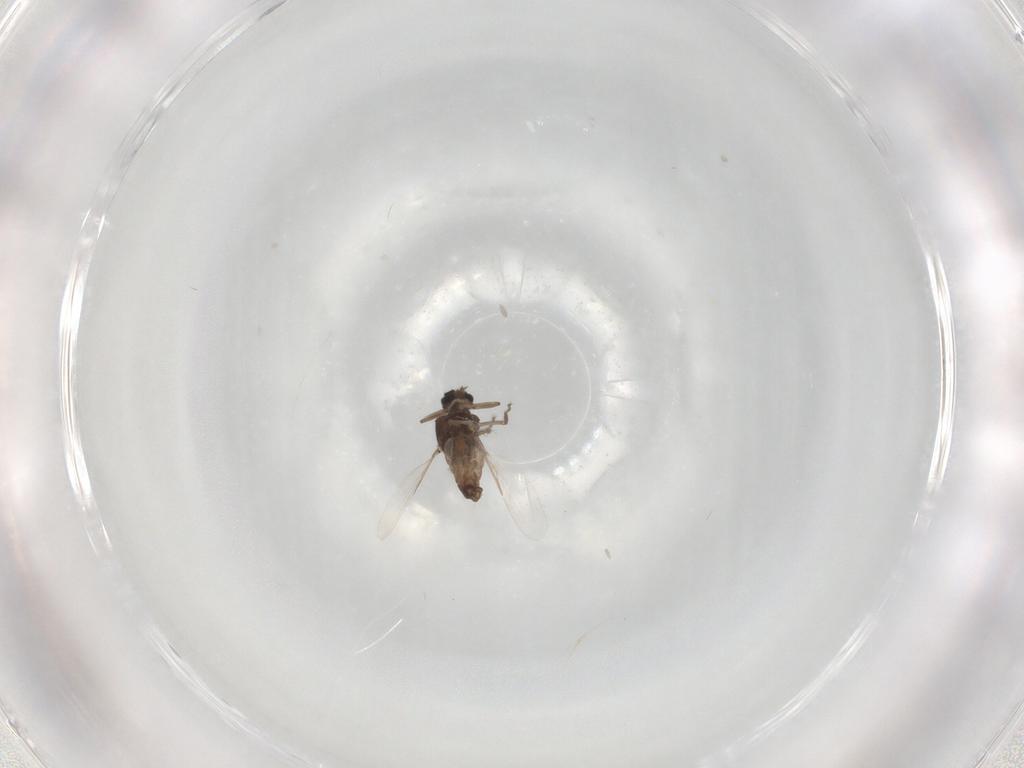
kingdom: Animalia
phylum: Arthropoda
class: Insecta
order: Diptera
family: Ceratopogonidae
